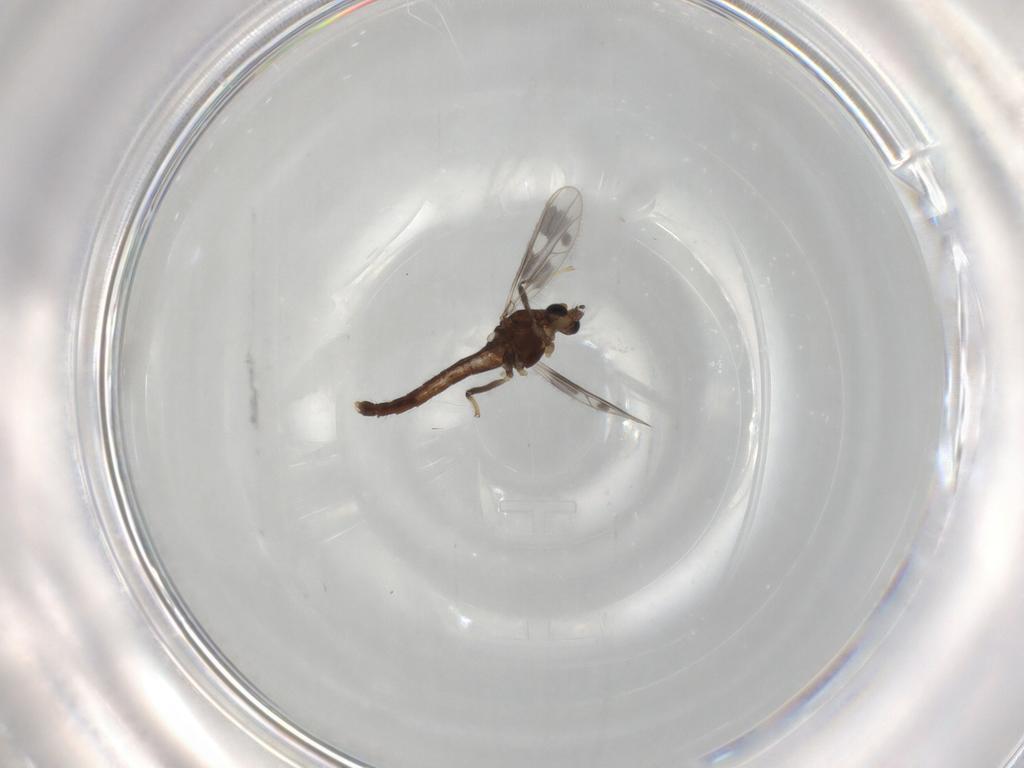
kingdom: Animalia
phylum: Arthropoda
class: Insecta
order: Diptera
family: Chironomidae
